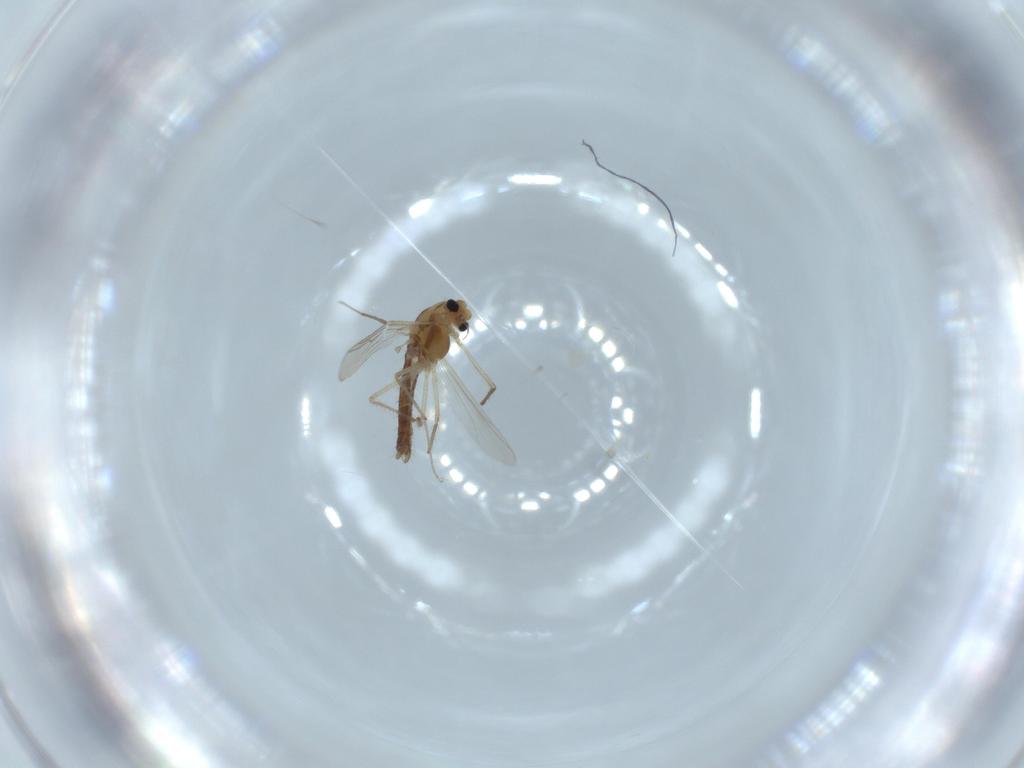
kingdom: Animalia
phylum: Arthropoda
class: Insecta
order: Diptera
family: Chironomidae
